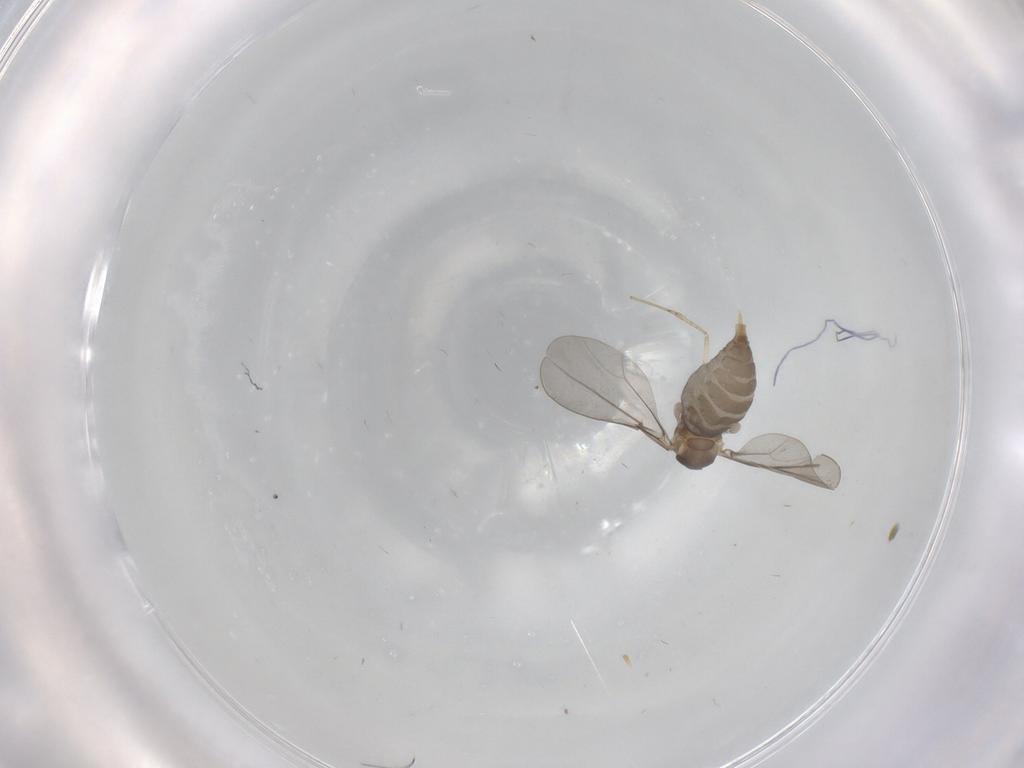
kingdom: Animalia
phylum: Arthropoda
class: Insecta
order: Diptera
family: Cecidomyiidae
